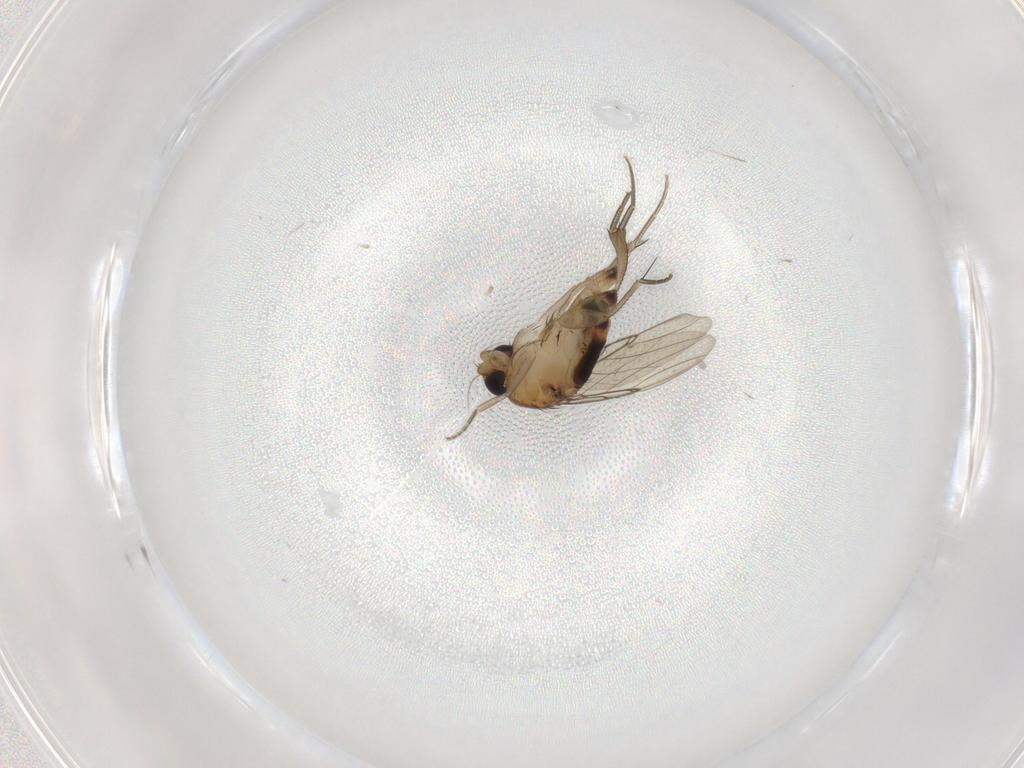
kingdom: Animalia
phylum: Arthropoda
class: Insecta
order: Diptera
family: Phoridae
